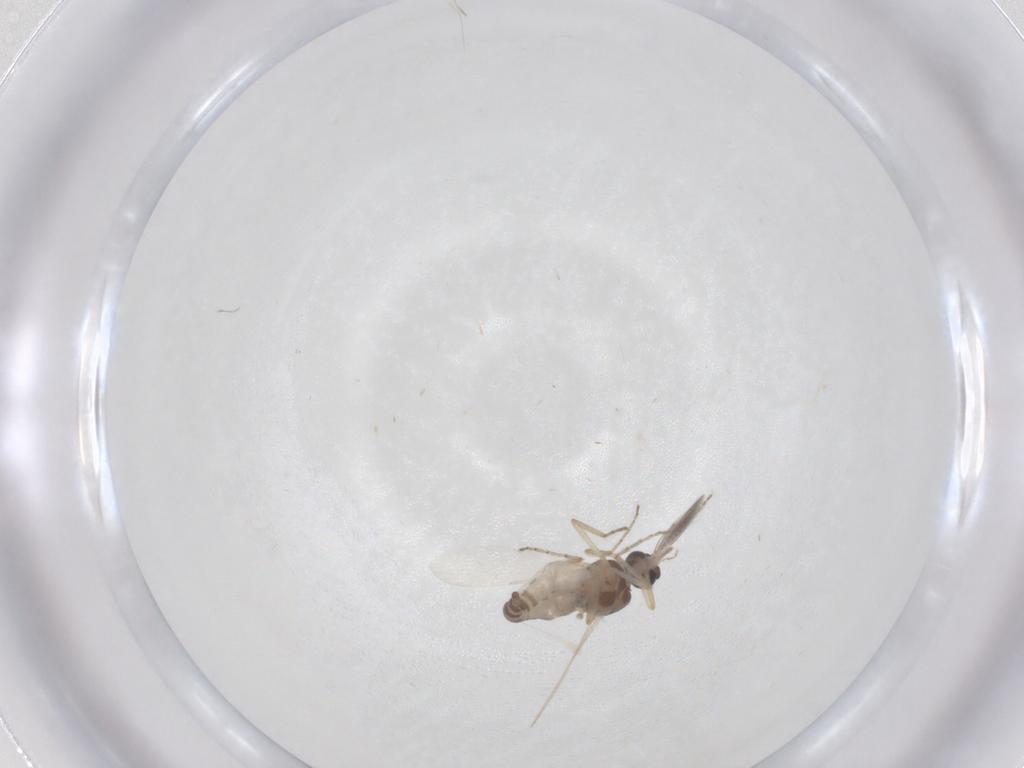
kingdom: Animalia
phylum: Arthropoda
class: Insecta
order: Diptera
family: Ceratopogonidae
